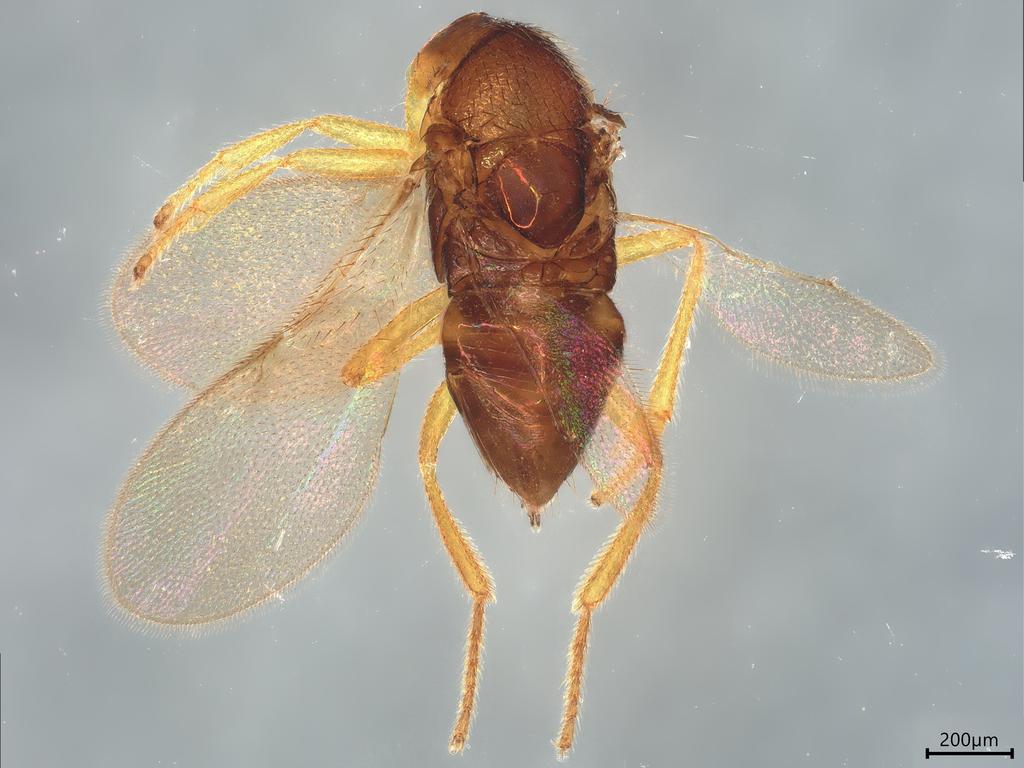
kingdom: Animalia
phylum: Arthropoda
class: Insecta
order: Hymenoptera
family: Encyrtidae
